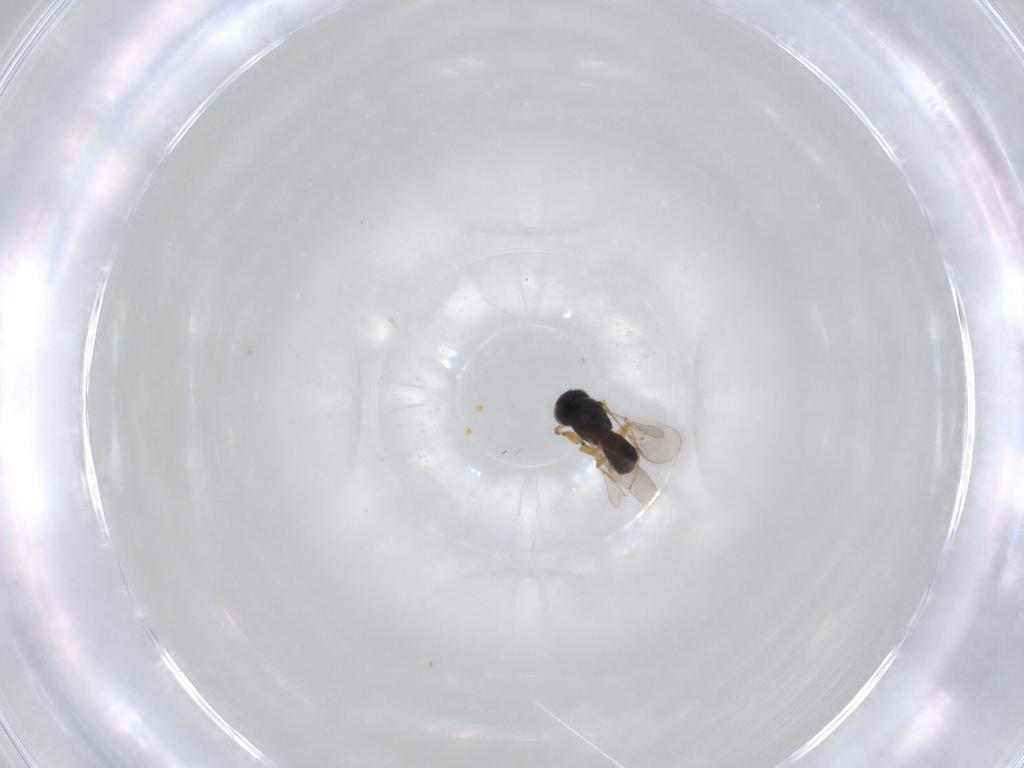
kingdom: Animalia
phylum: Arthropoda
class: Insecta
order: Hymenoptera
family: Scelionidae
